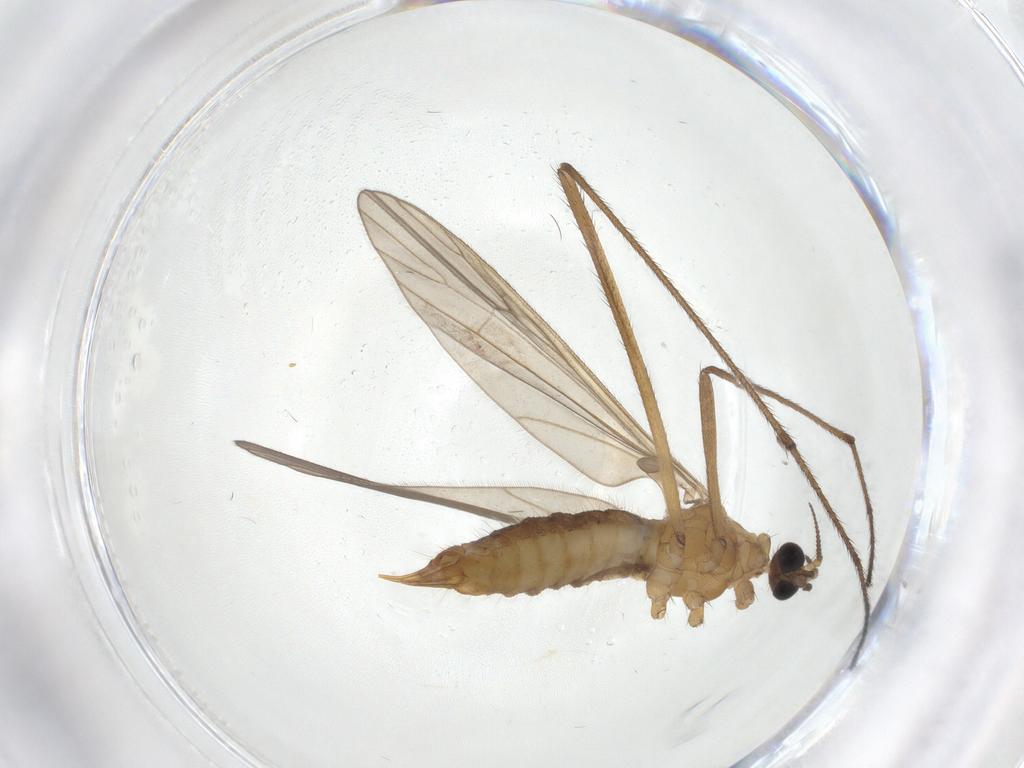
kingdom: Animalia
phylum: Arthropoda
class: Insecta
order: Diptera
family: Limoniidae
